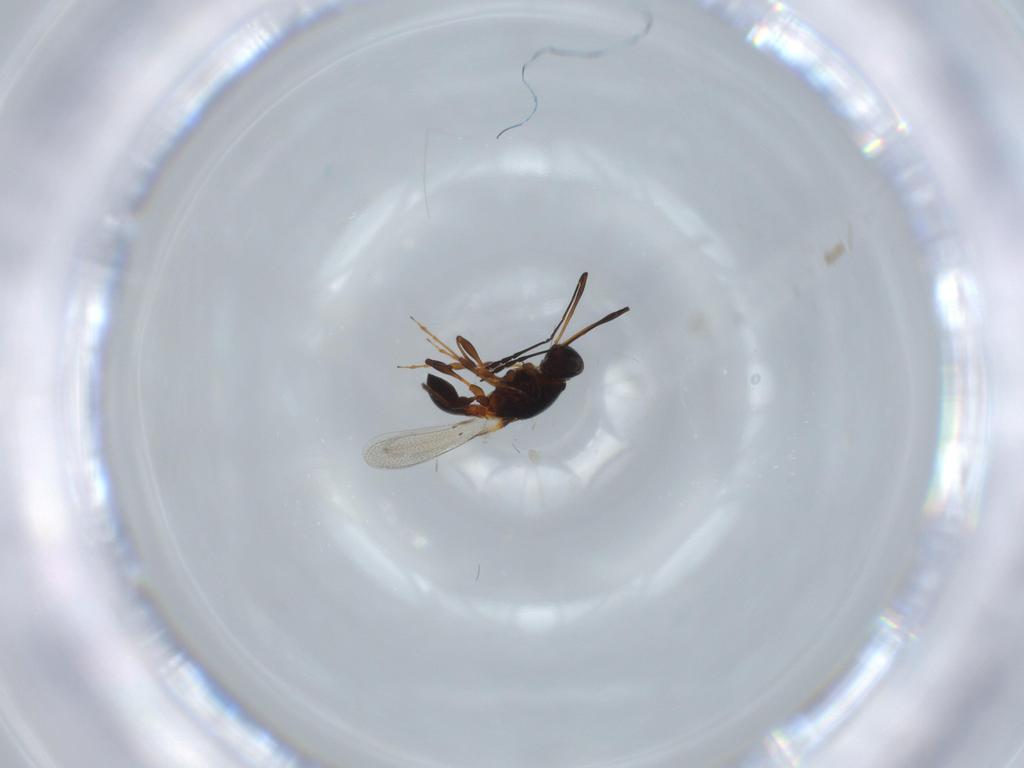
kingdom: Animalia
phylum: Arthropoda
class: Insecta
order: Hymenoptera
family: Platygastridae
